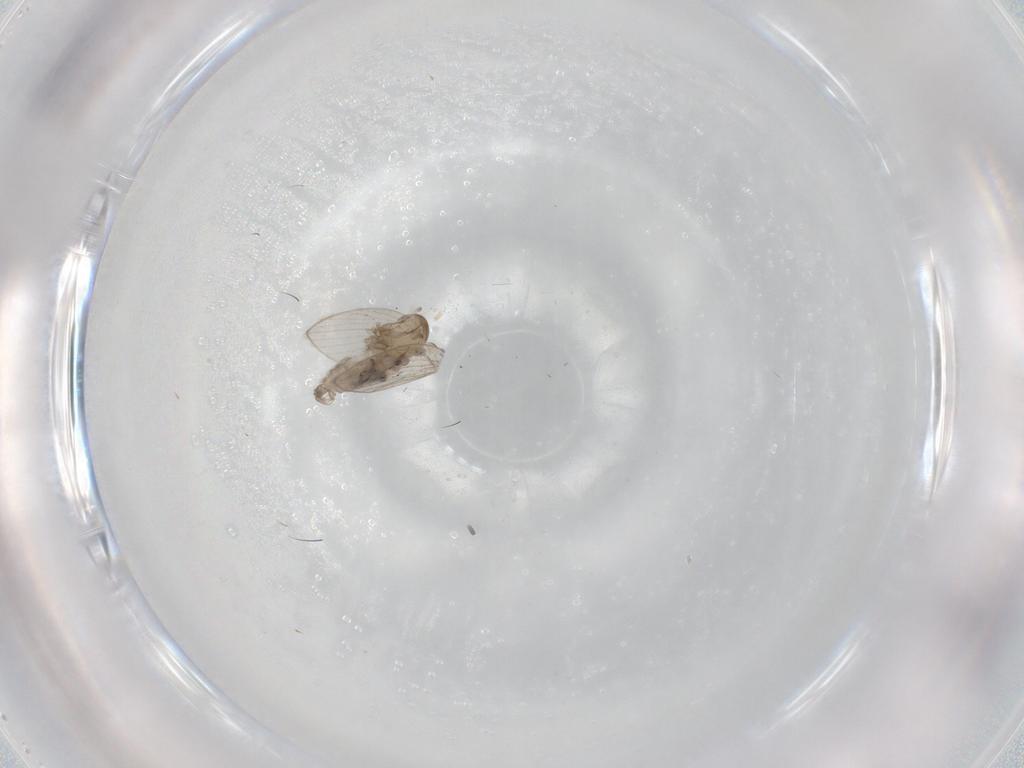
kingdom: Animalia
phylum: Arthropoda
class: Insecta
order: Diptera
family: Psychodidae
